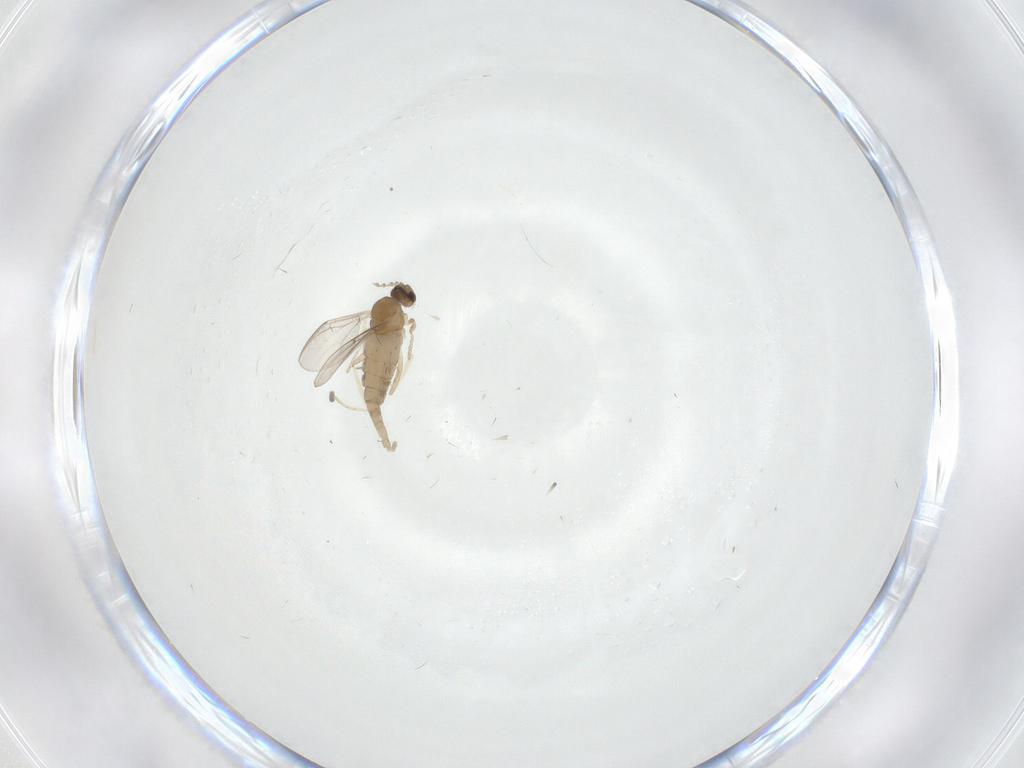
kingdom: Animalia
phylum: Arthropoda
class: Insecta
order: Diptera
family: Cecidomyiidae
